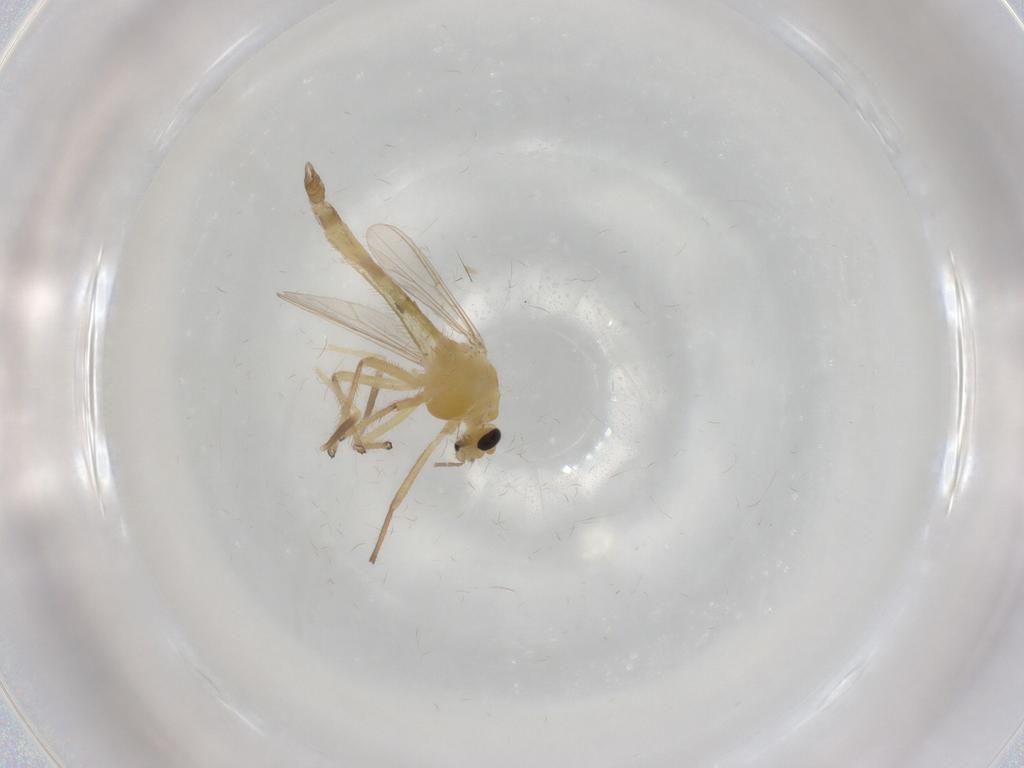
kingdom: Animalia
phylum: Arthropoda
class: Insecta
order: Diptera
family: Chironomidae
